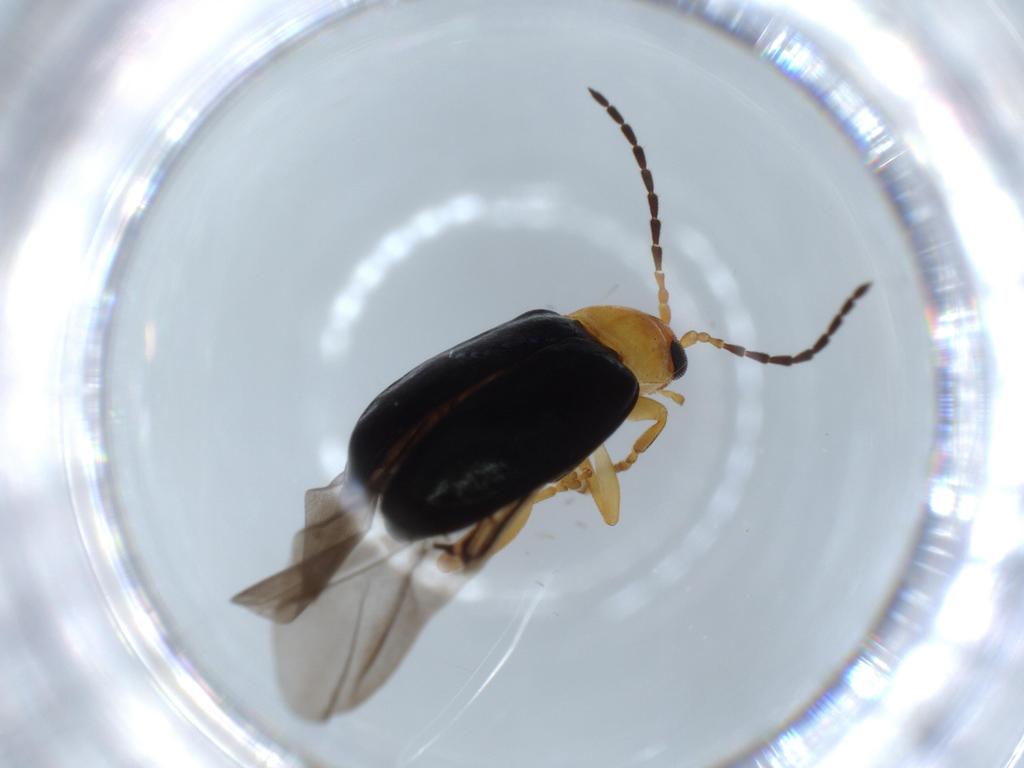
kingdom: Animalia
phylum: Arthropoda
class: Insecta
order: Coleoptera
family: Chrysomelidae
